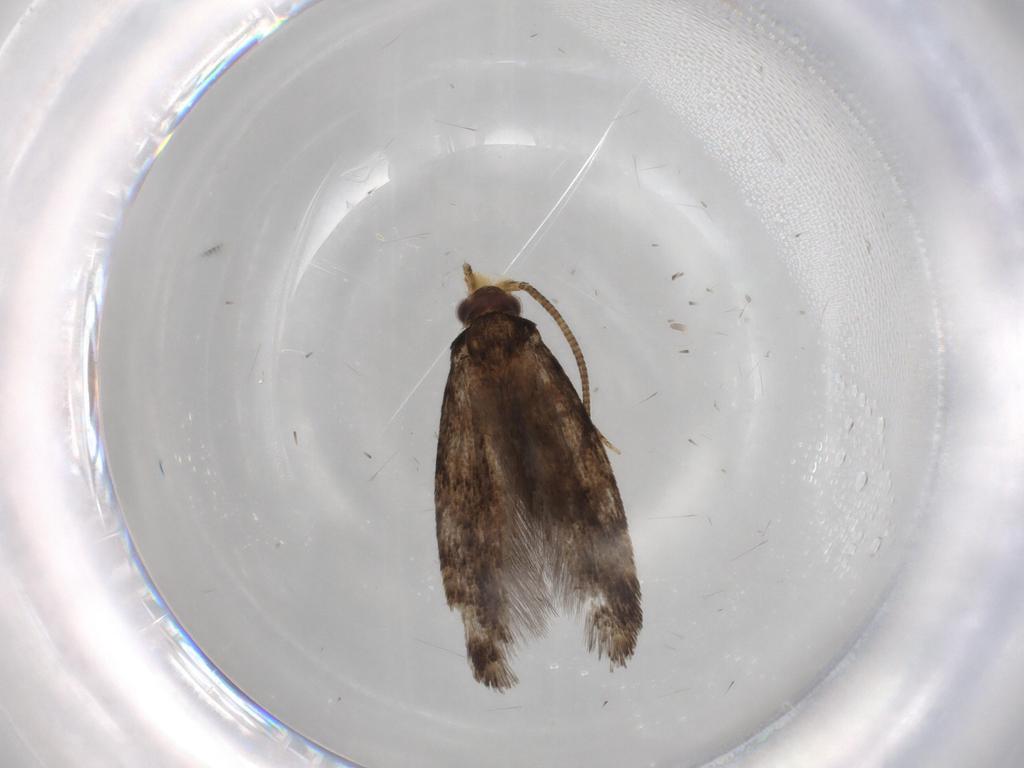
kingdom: Animalia
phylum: Arthropoda
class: Insecta
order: Lepidoptera
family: Tineidae
